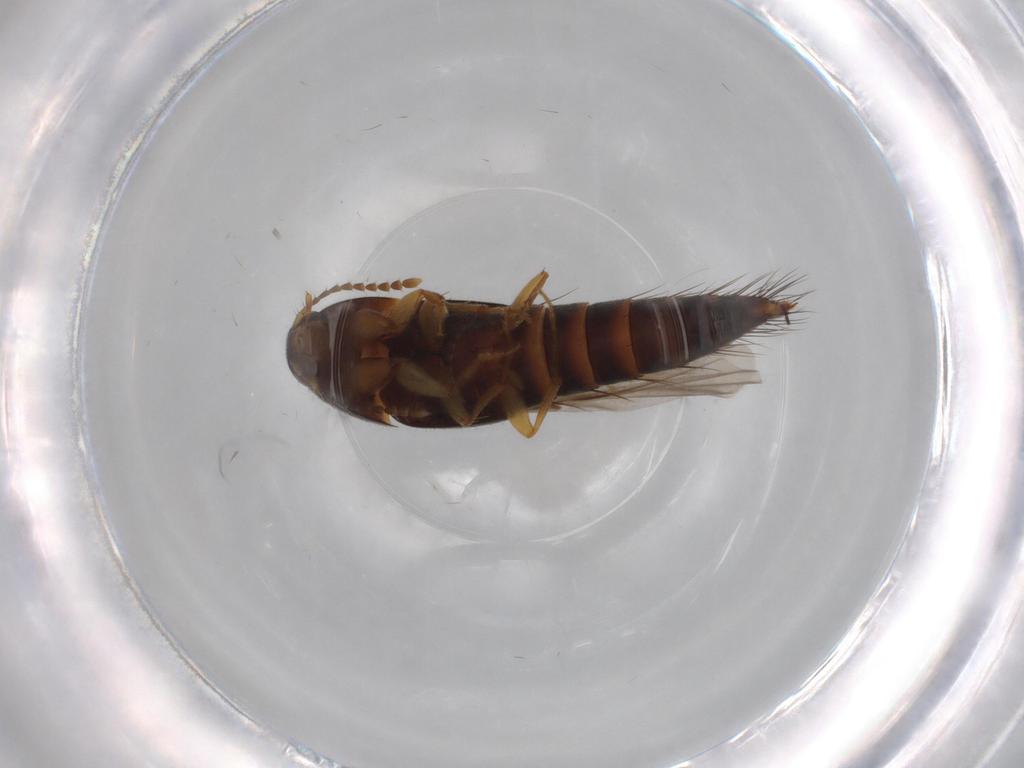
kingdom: Animalia
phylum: Arthropoda
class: Insecta
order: Coleoptera
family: Staphylinidae
